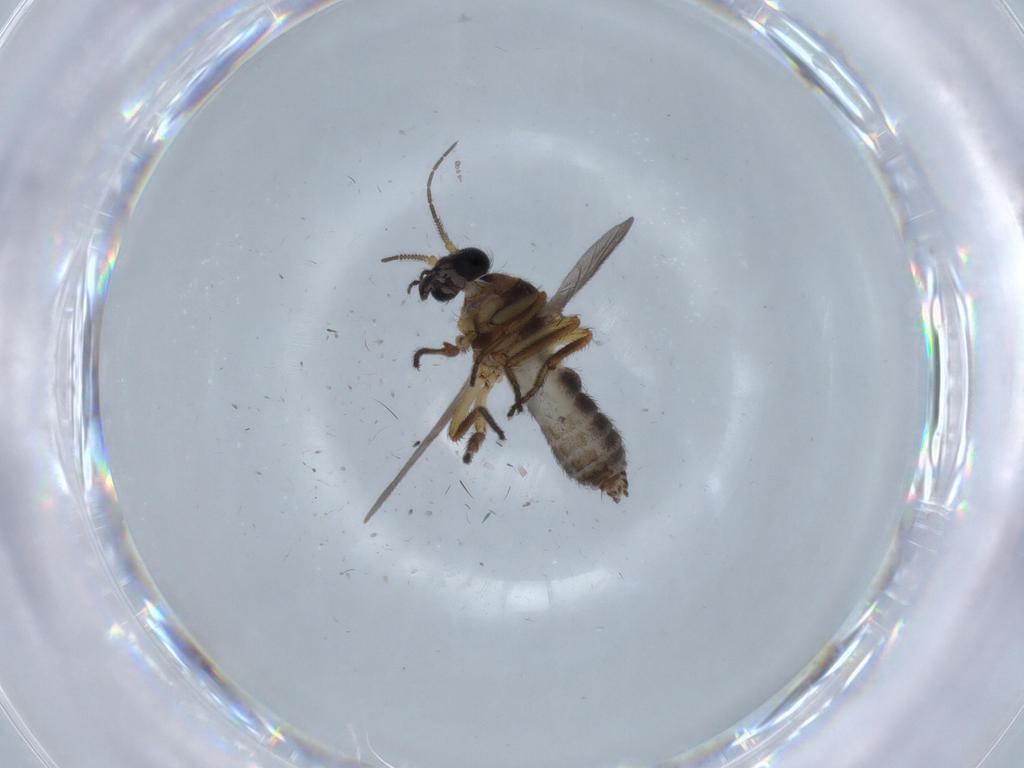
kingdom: Animalia
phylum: Arthropoda
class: Insecta
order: Diptera
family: Ceratopogonidae
